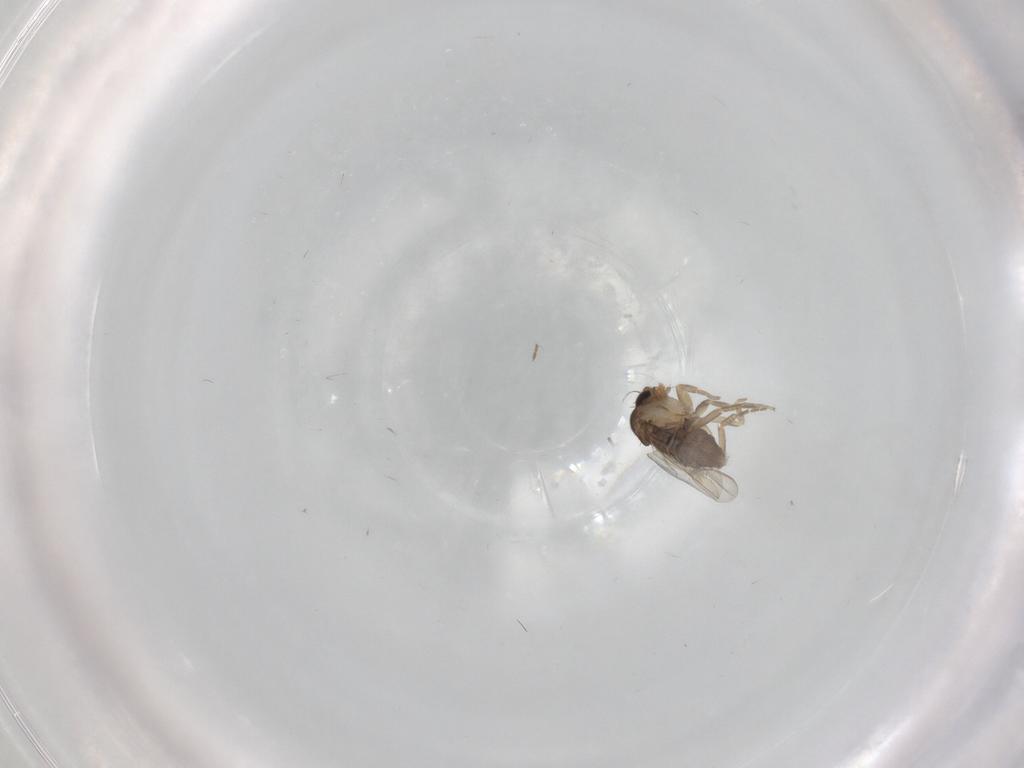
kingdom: Animalia
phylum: Arthropoda
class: Insecta
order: Diptera
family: Phoridae
